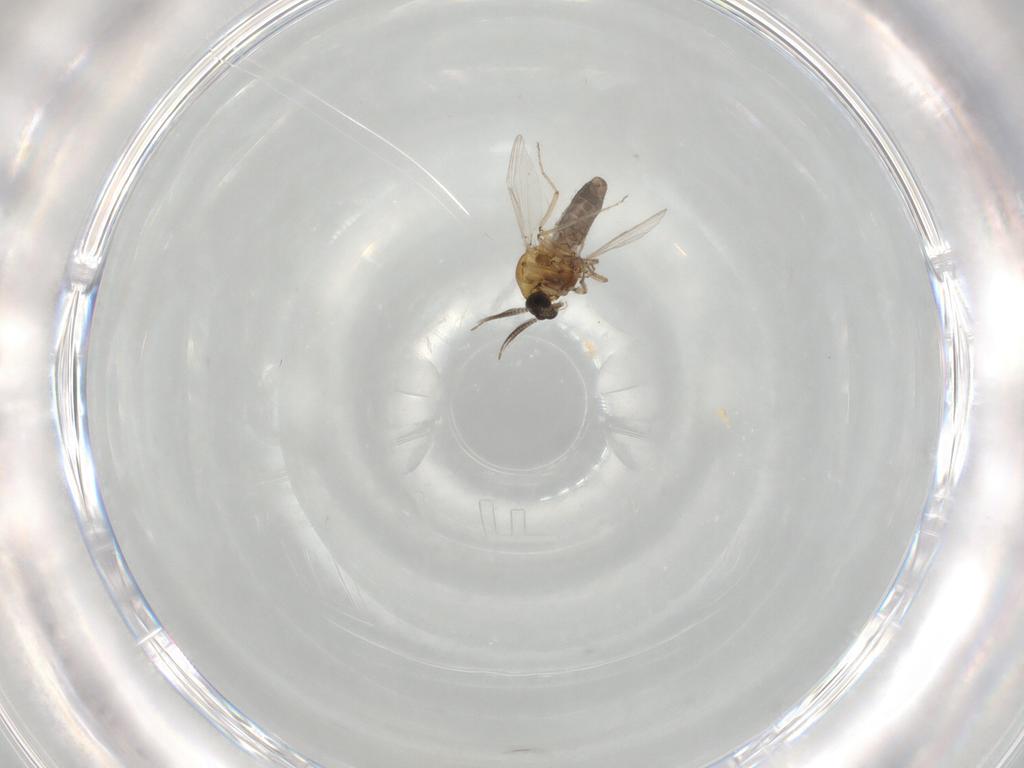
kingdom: Animalia
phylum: Arthropoda
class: Insecta
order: Diptera
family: Ceratopogonidae
